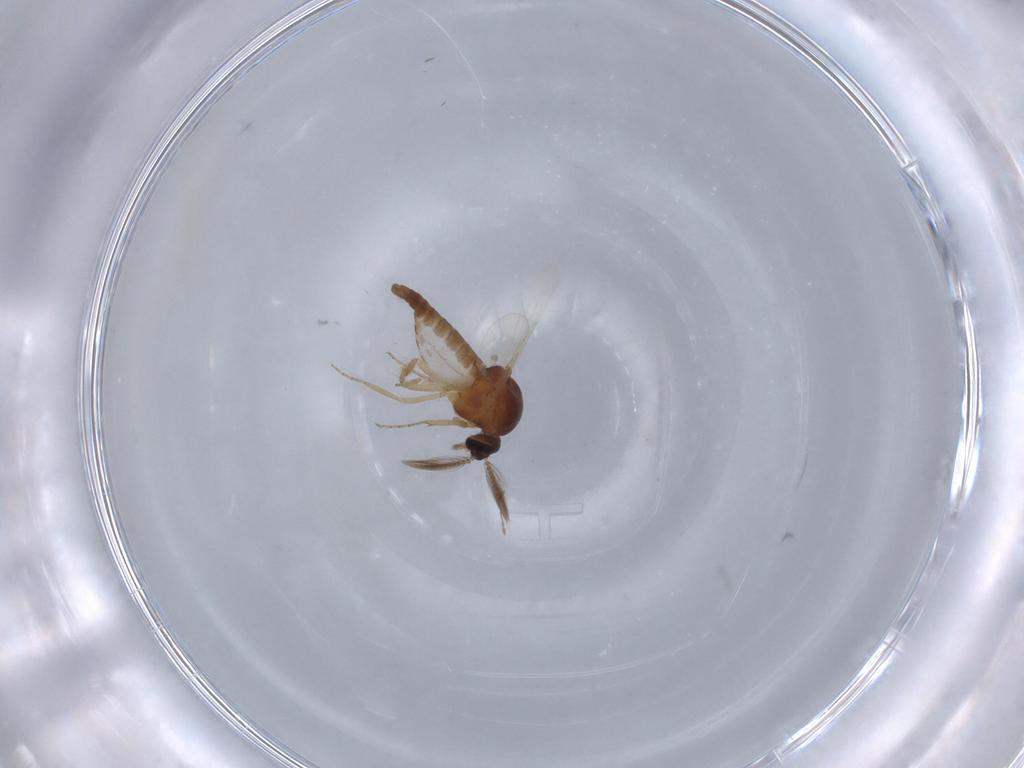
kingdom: Animalia
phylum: Arthropoda
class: Insecta
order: Diptera
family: Ceratopogonidae
